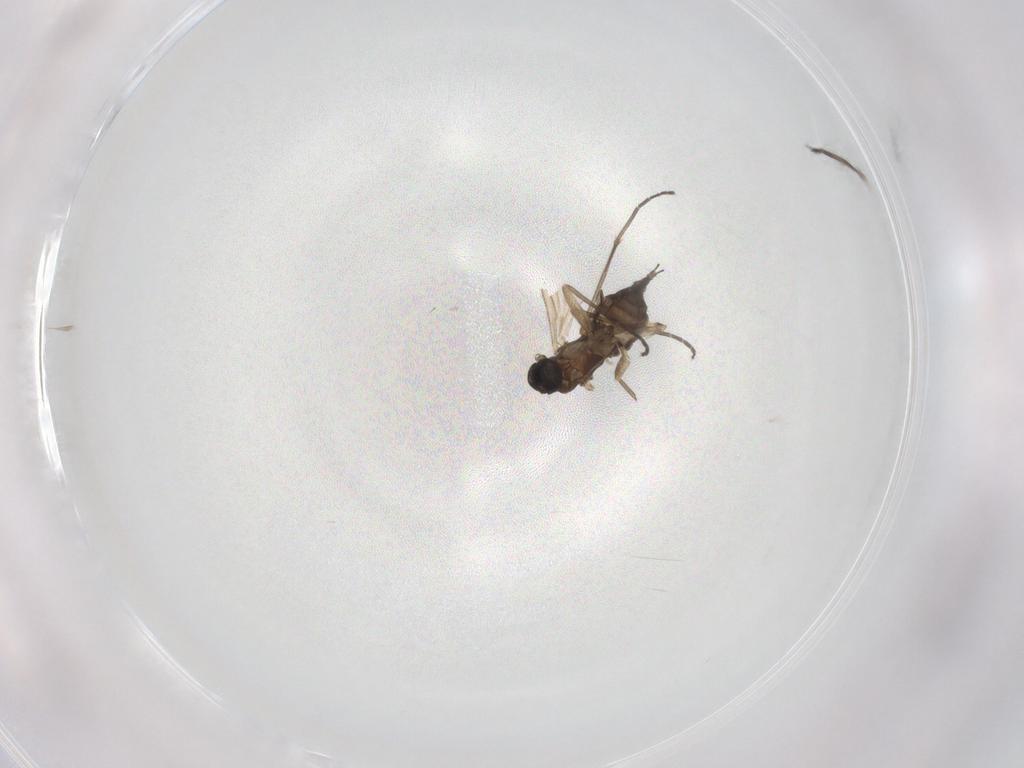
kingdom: Animalia
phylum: Arthropoda
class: Insecta
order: Diptera
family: Sciaridae
